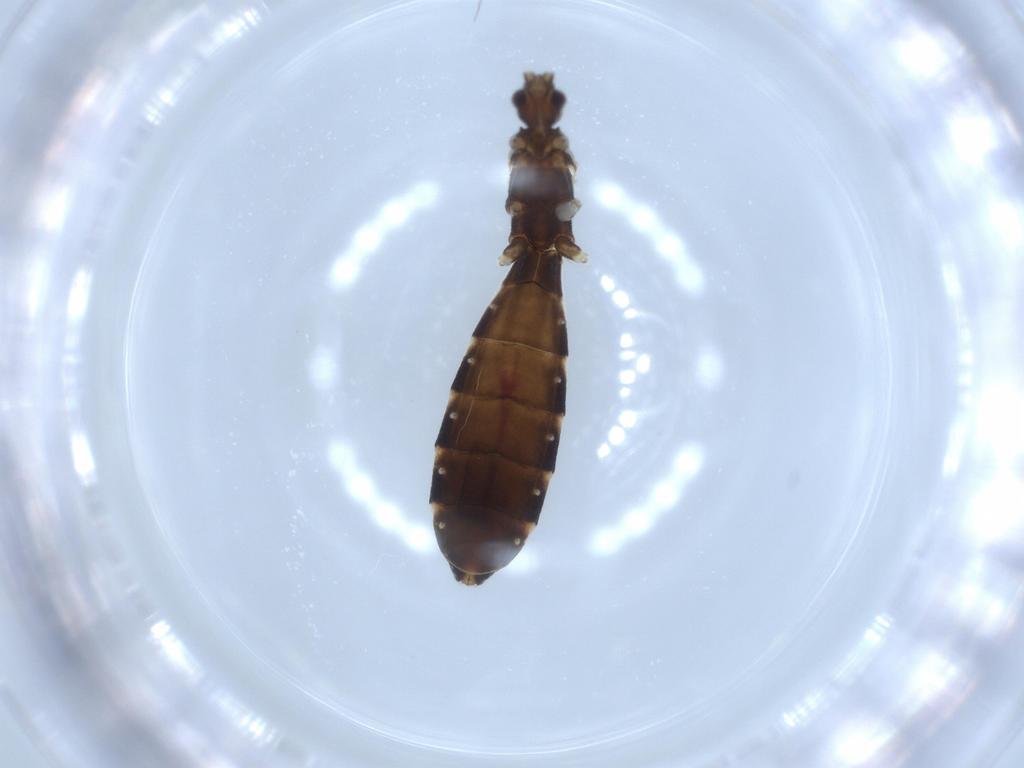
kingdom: Animalia
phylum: Arthropoda
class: Insecta
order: Hemiptera
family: Reduviidae
